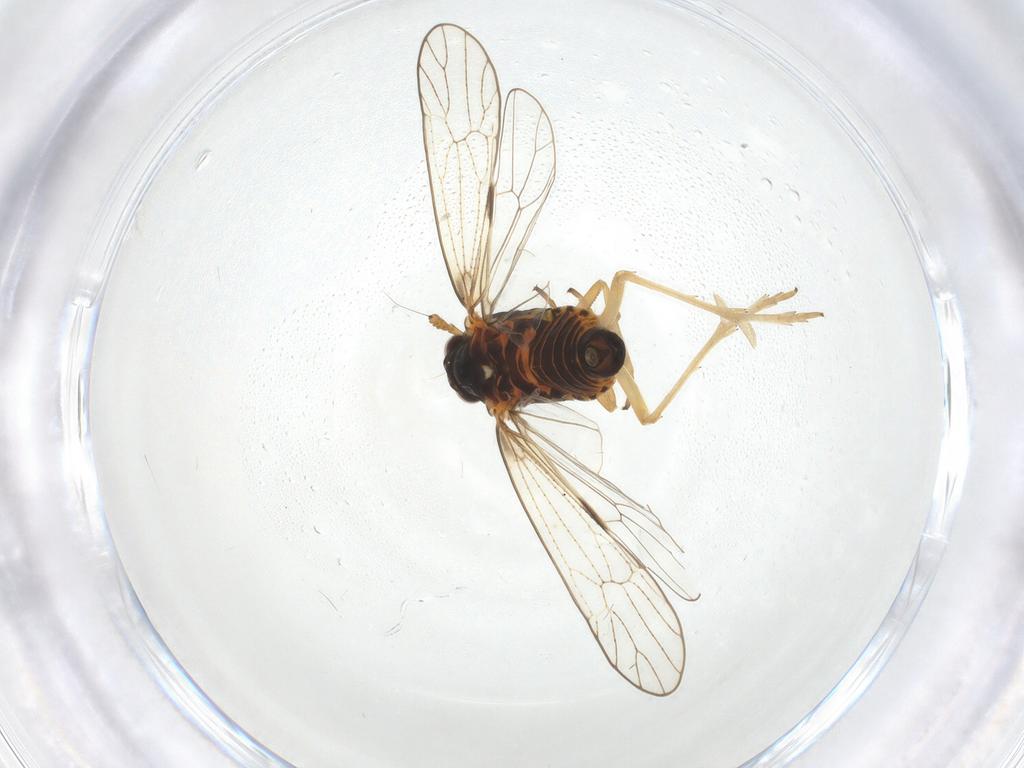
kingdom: Animalia
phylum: Arthropoda
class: Insecta
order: Diptera
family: Phoridae
